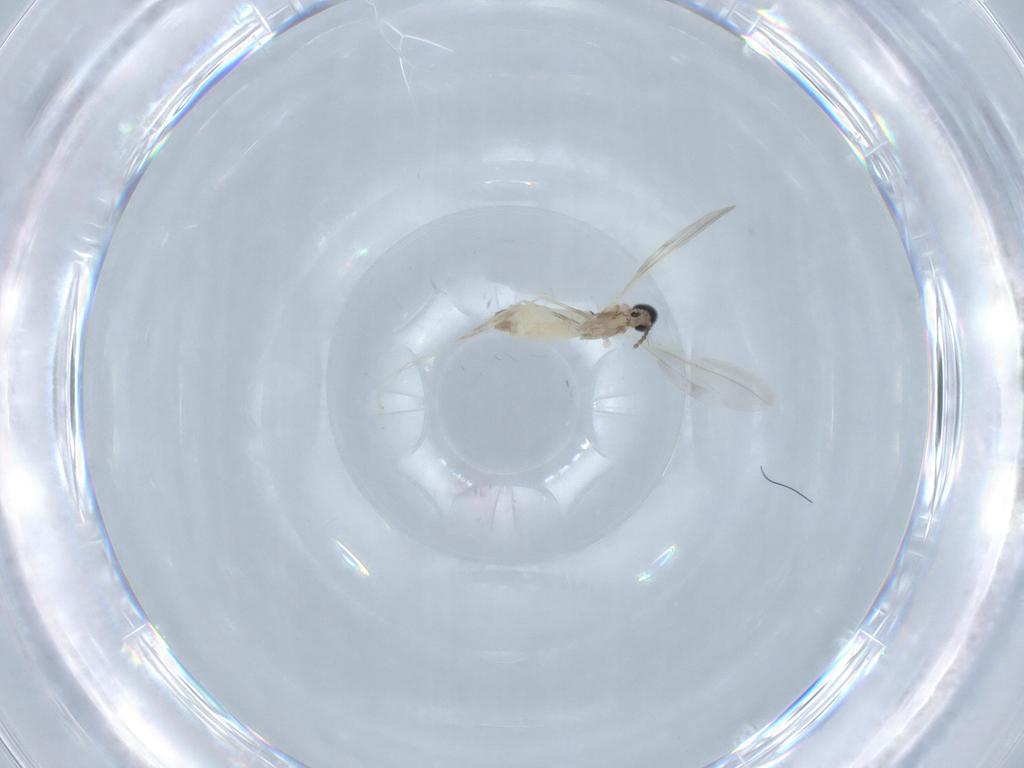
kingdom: Animalia
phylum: Arthropoda
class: Insecta
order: Diptera
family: Cecidomyiidae
